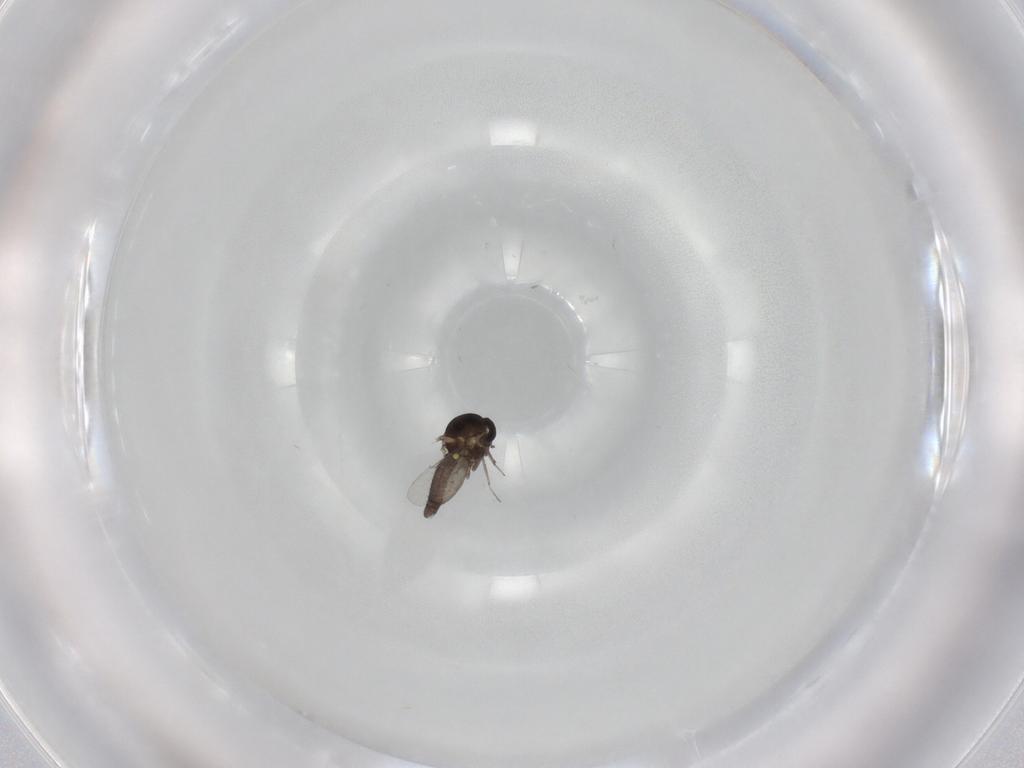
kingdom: Animalia
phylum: Arthropoda
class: Insecta
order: Diptera
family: Ceratopogonidae
